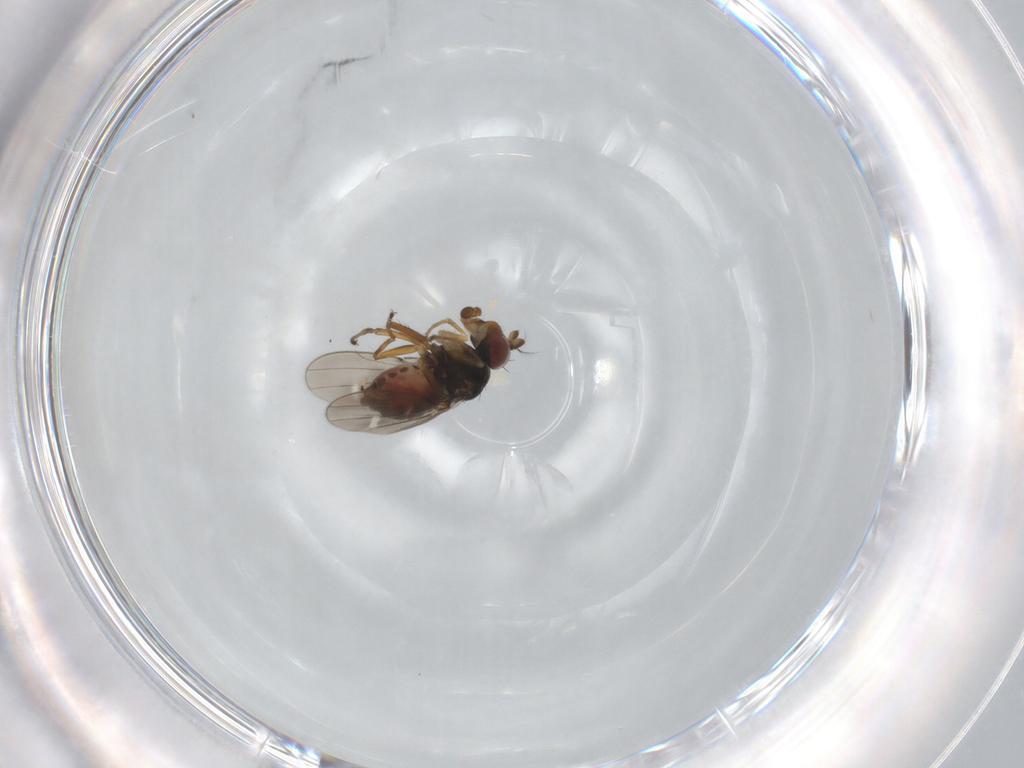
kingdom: Animalia
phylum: Arthropoda
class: Insecta
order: Diptera
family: Ephydridae
